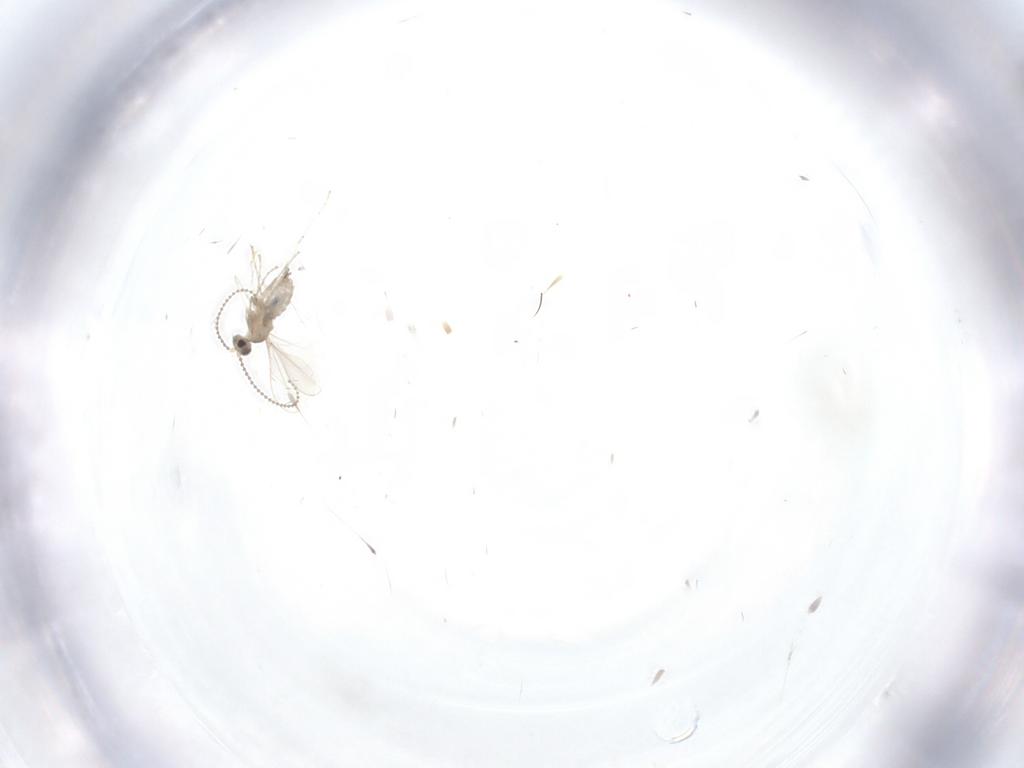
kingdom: Animalia
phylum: Arthropoda
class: Insecta
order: Diptera
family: Cecidomyiidae
